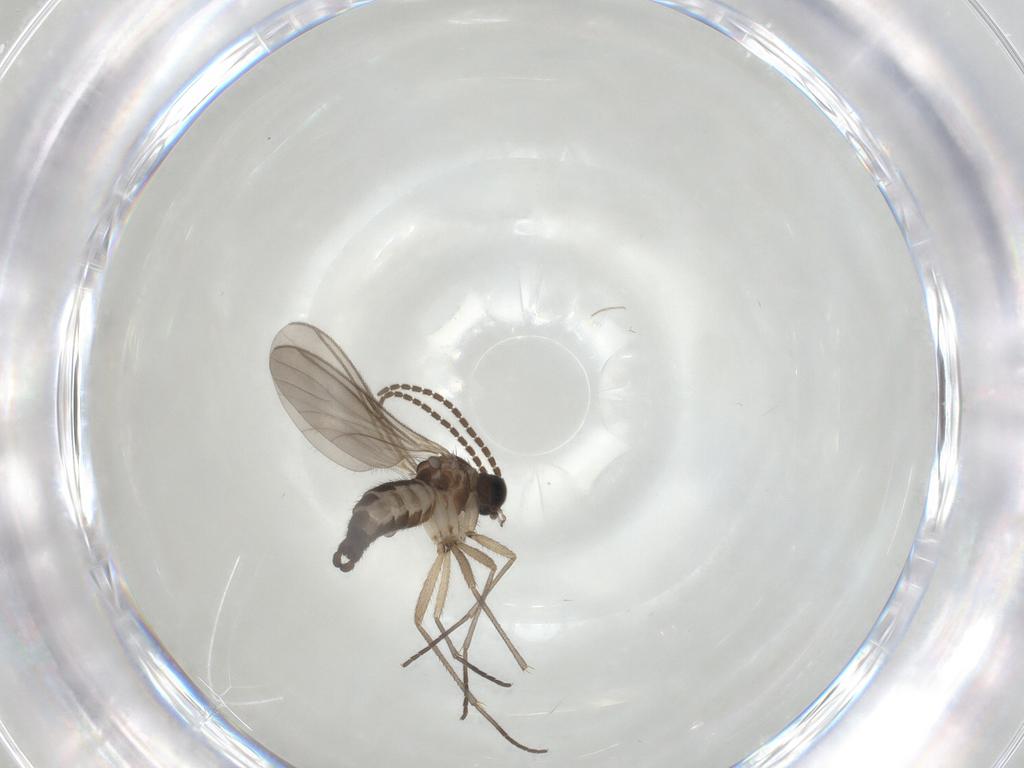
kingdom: Animalia
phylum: Arthropoda
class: Insecta
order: Diptera
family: Sciaridae
